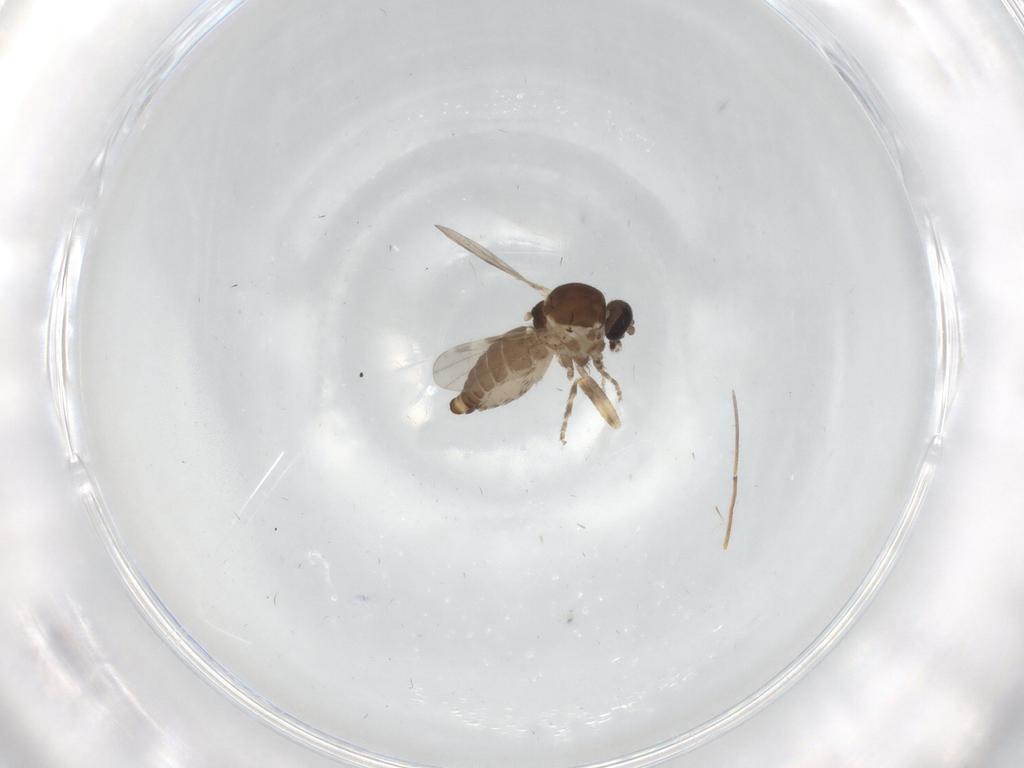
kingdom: Animalia
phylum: Arthropoda
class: Insecta
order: Diptera
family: Ceratopogonidae
